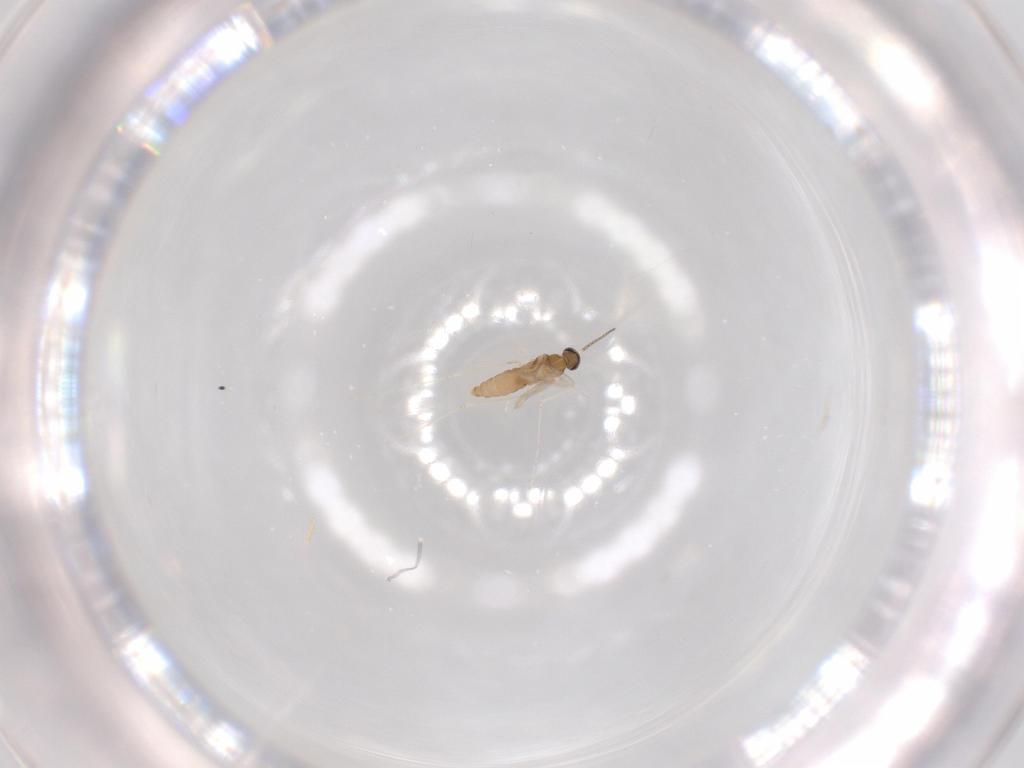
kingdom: Animalia
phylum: Arthropoda
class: Insecta
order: Diptera
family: Cecidomyiidae
